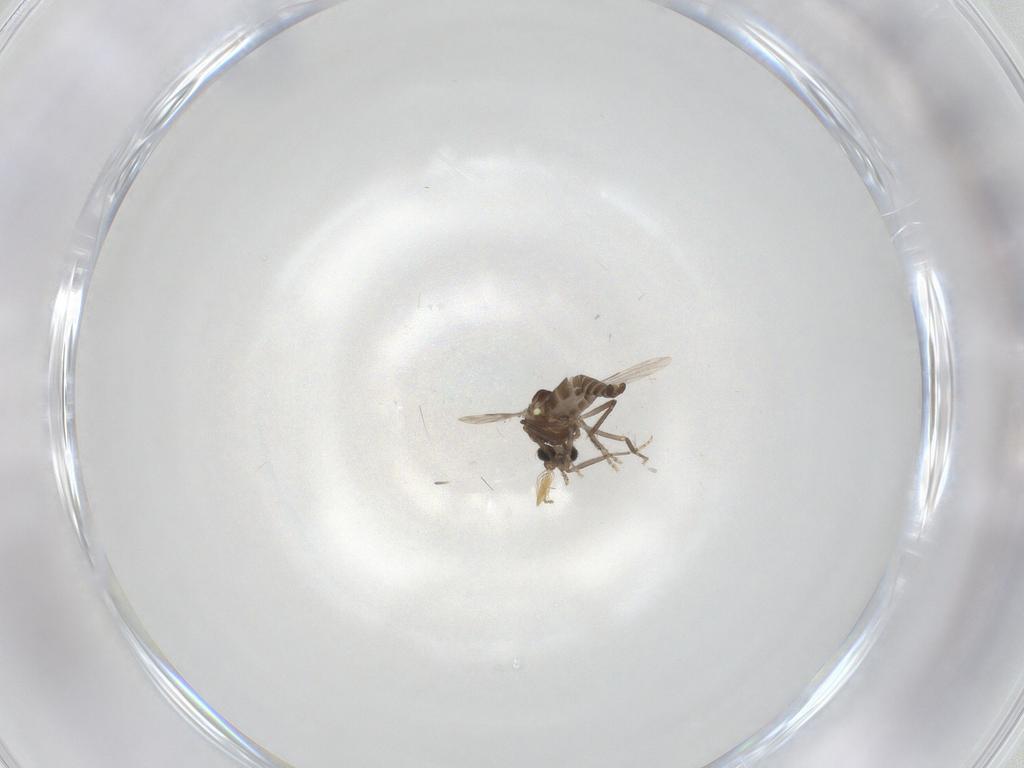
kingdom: Animalia
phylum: Arthropoda
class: Insecta
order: Diptera
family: Ceratopogonidae
